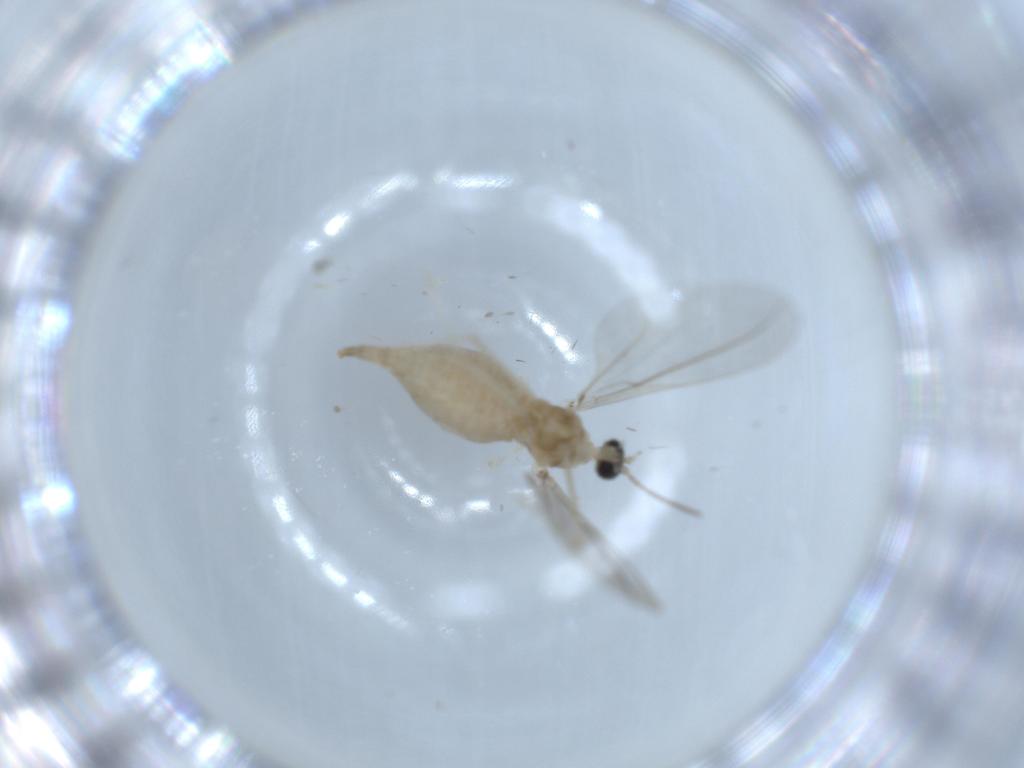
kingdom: Animalia
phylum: Arthropoda
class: Insecta
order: Diptera
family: Cecidomyiidae
